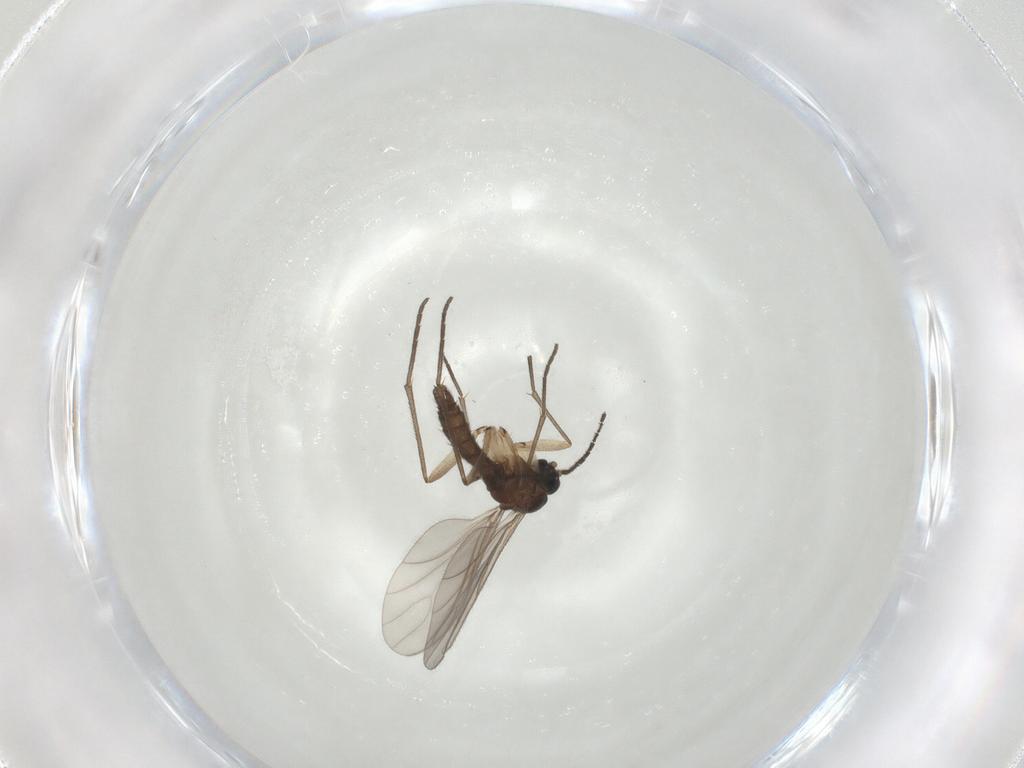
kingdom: Animalia
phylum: Arthropoda
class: Insecta
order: Diptera
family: Sciaridae
